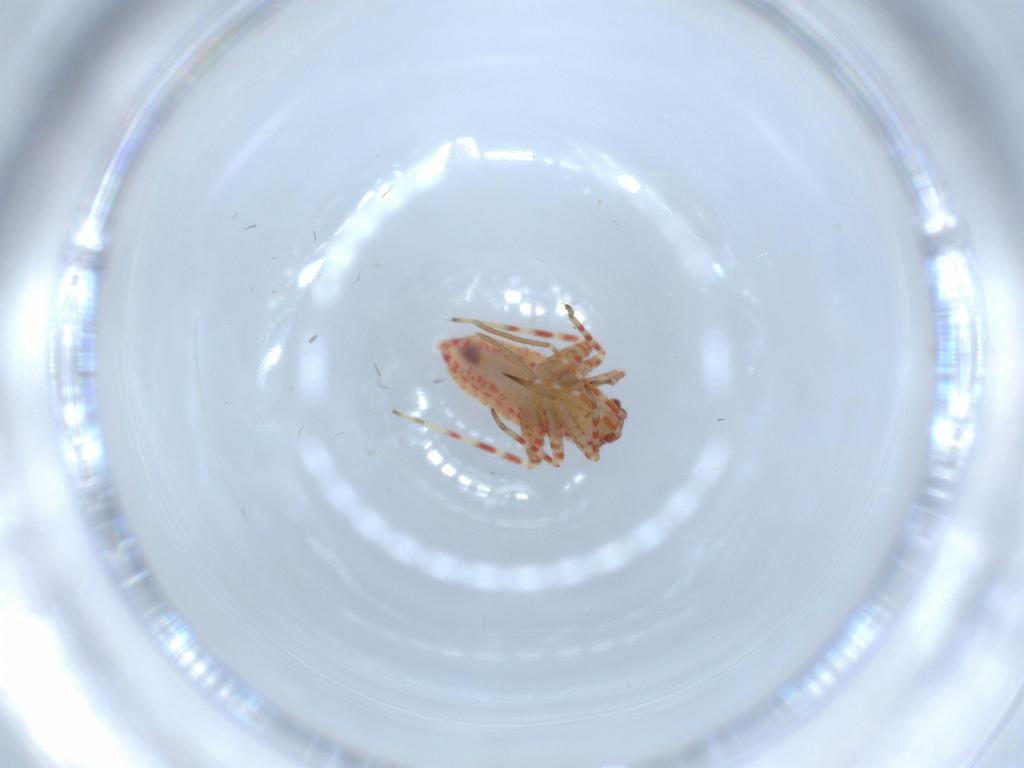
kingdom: Animalia
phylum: Arthropoda
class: Insecta
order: Hemiptera
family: Miridae
